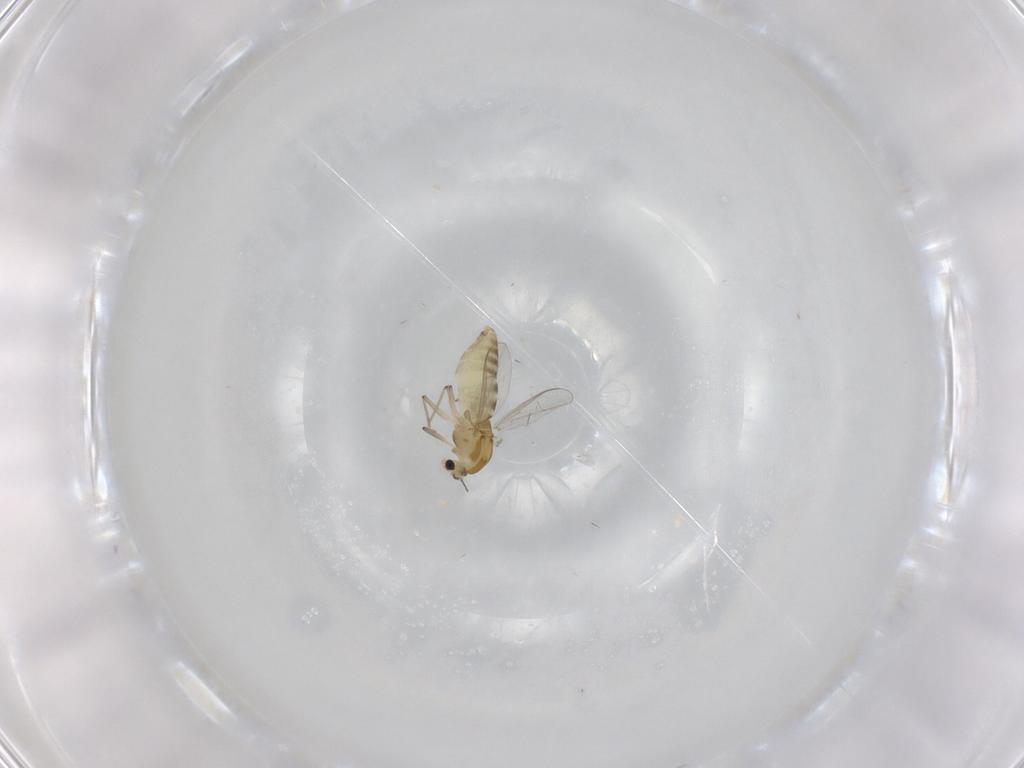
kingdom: Animalia
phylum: Arthropoda
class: Insecta
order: Diptera
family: Chironomidae
